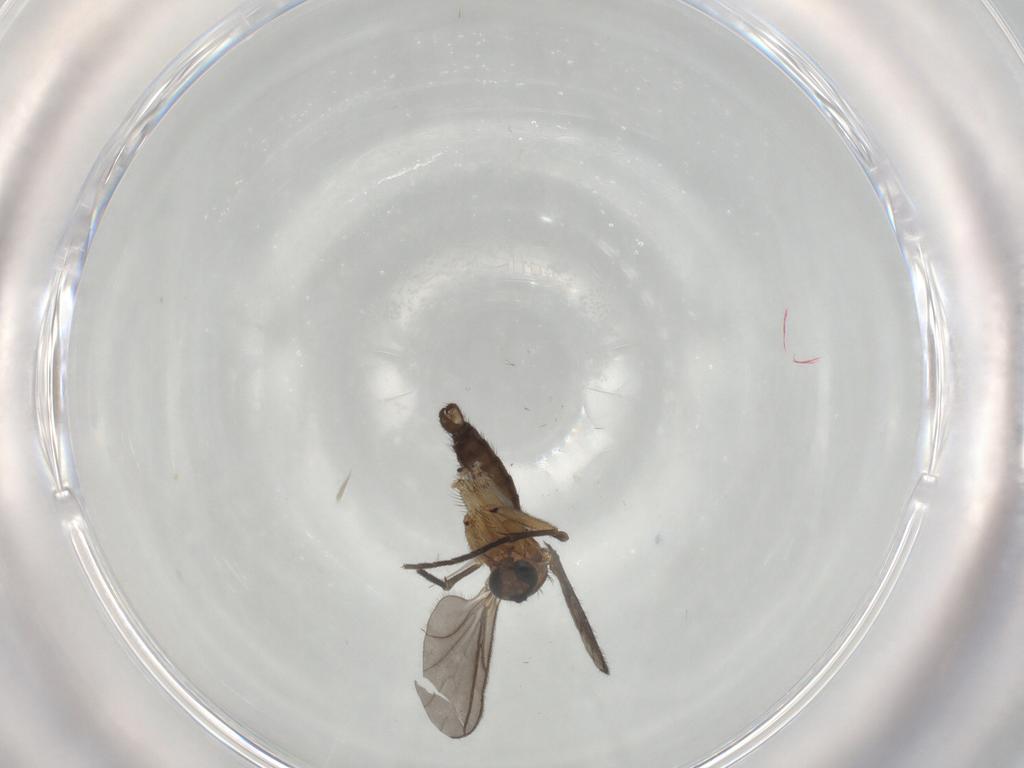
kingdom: Animalia
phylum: Arthropoda
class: Insecta
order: Diptera
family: Sciaridae
